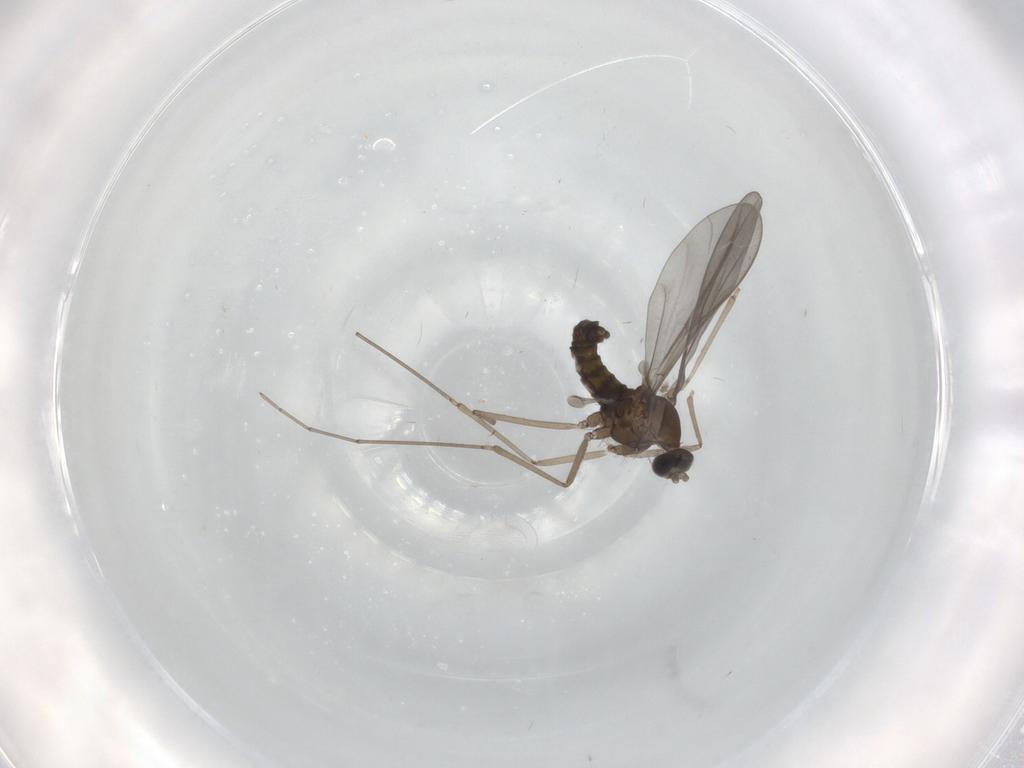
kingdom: Animalia
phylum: Arthropoda
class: Insecta
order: Diptera
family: Cecidomyiidae
